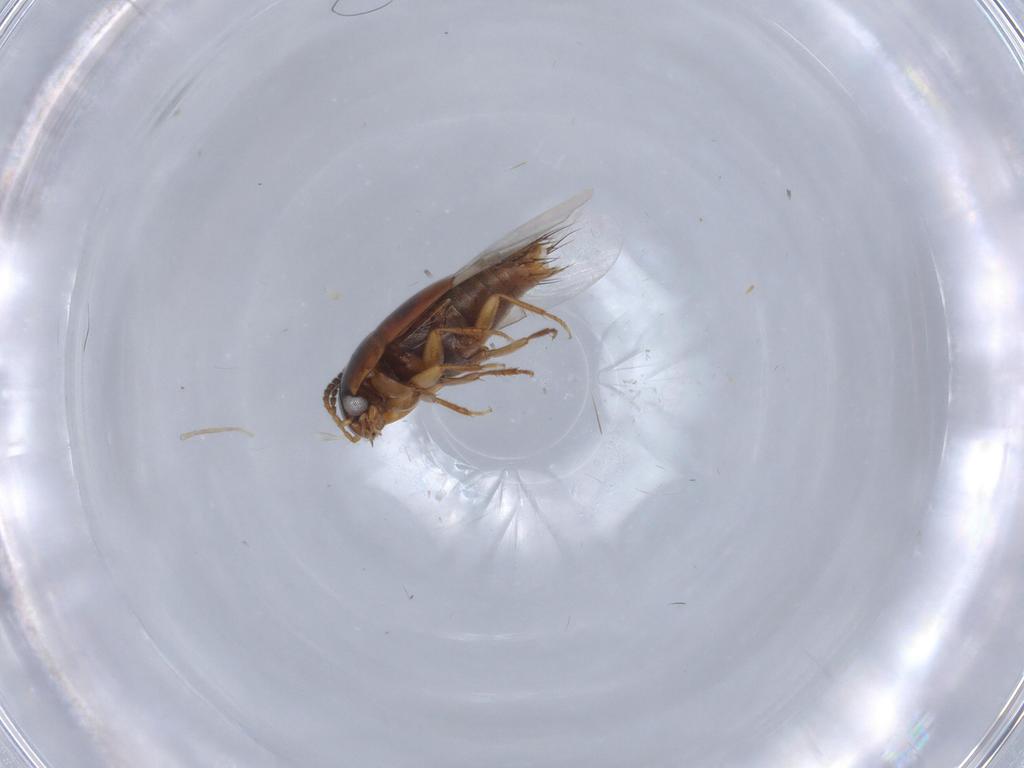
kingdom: Animalia
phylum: Arthropoda
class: Insecta
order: Coleoptera
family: Staphylinidae
